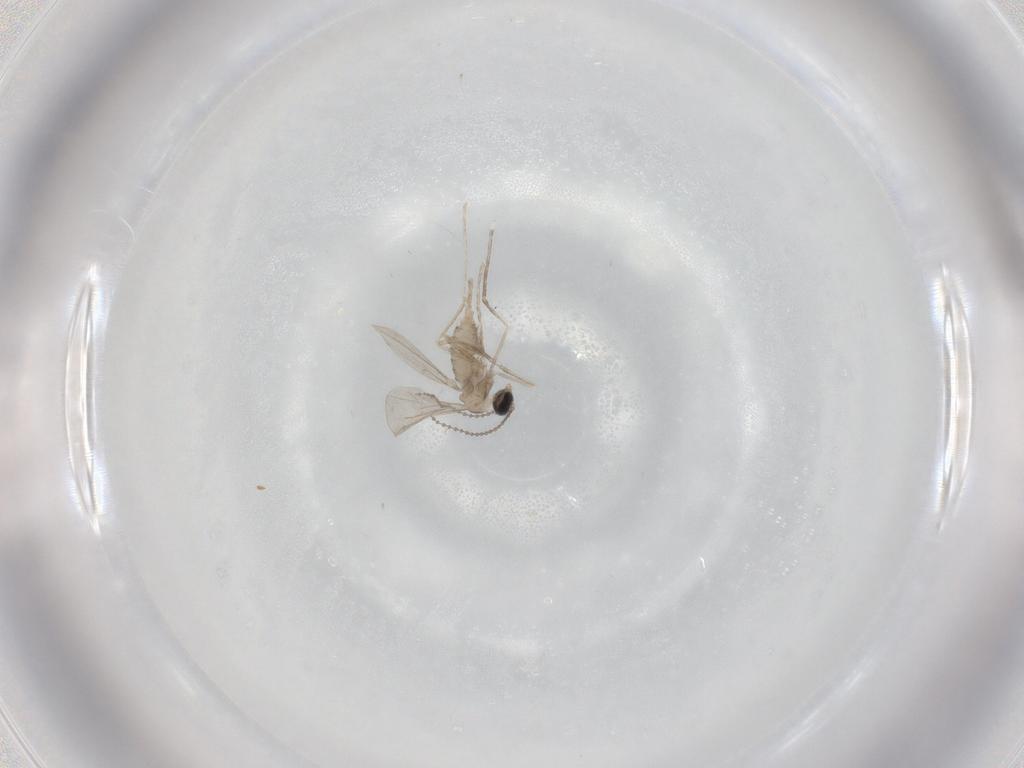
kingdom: Animalia
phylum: Arthropoda
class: Insecta
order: Diptera
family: Cecidomyiidae
